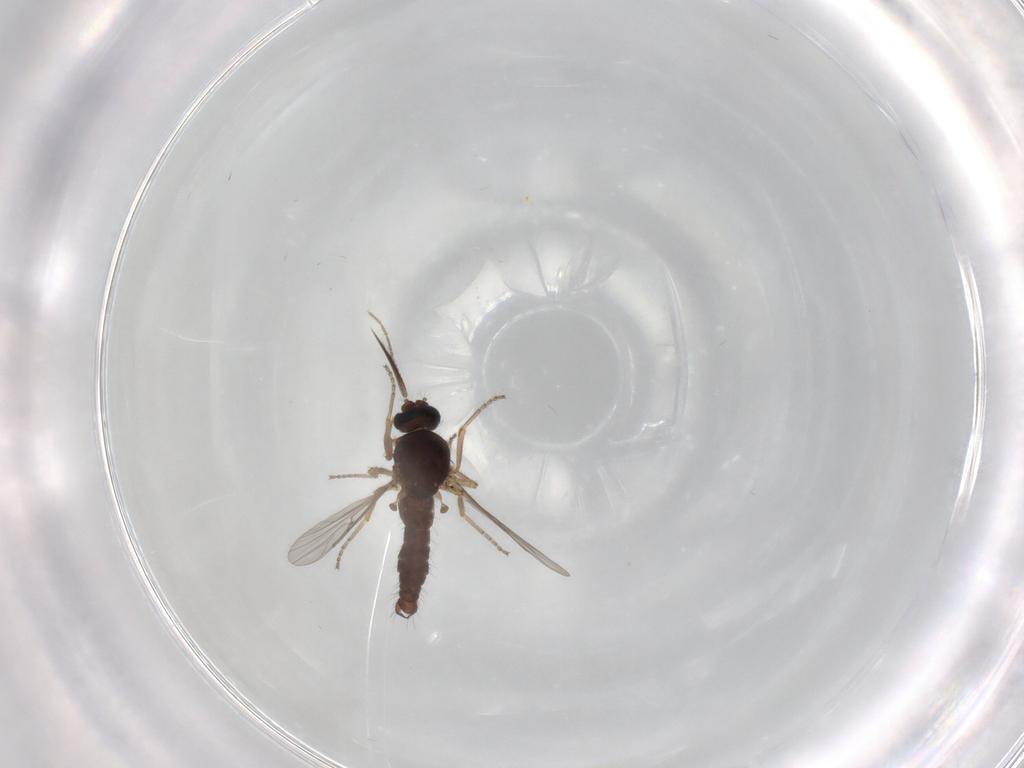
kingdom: Animalia
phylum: Arthropoda
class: Insecta
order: Diptera
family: Ceratopogonidae
